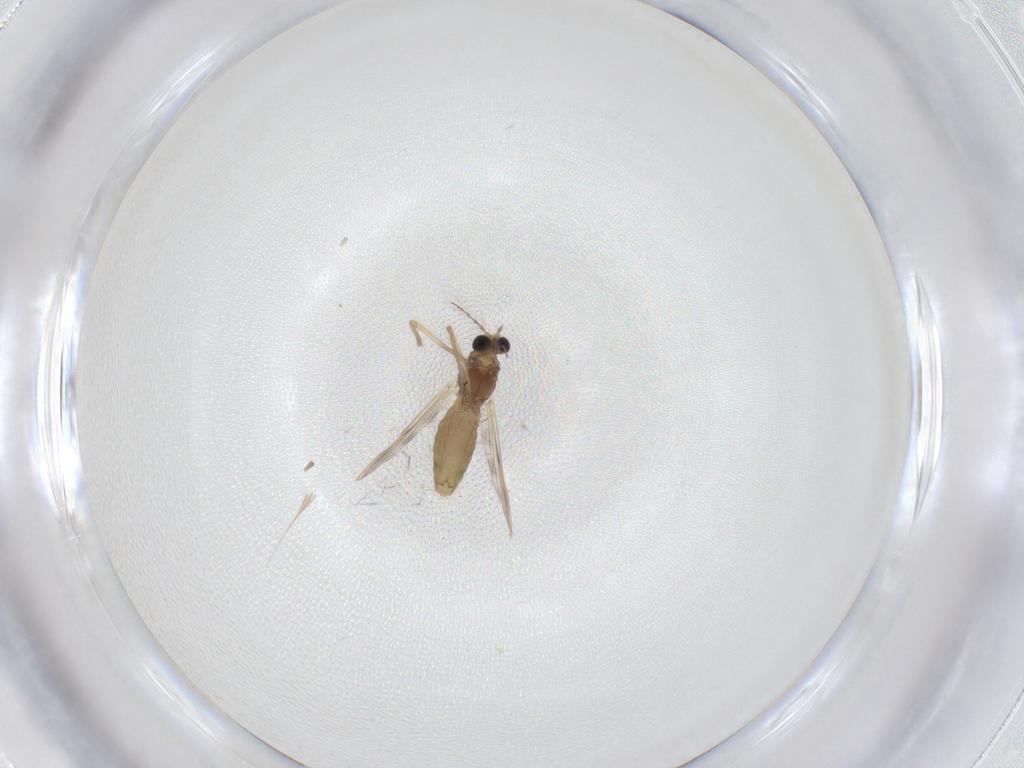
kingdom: Animalia
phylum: Arthropoda
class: Insecta
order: Diptera
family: Chironomidae
